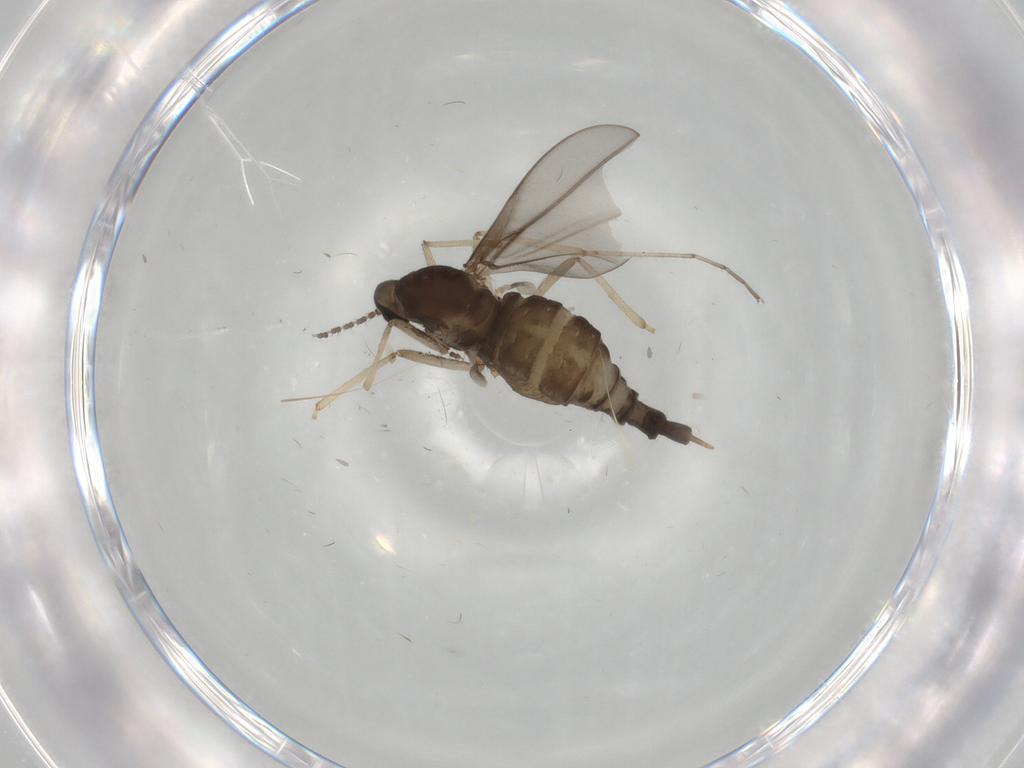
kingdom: Animalia
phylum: Arthropoda
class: Insecta
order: Diptera
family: Cecidomyiidae
